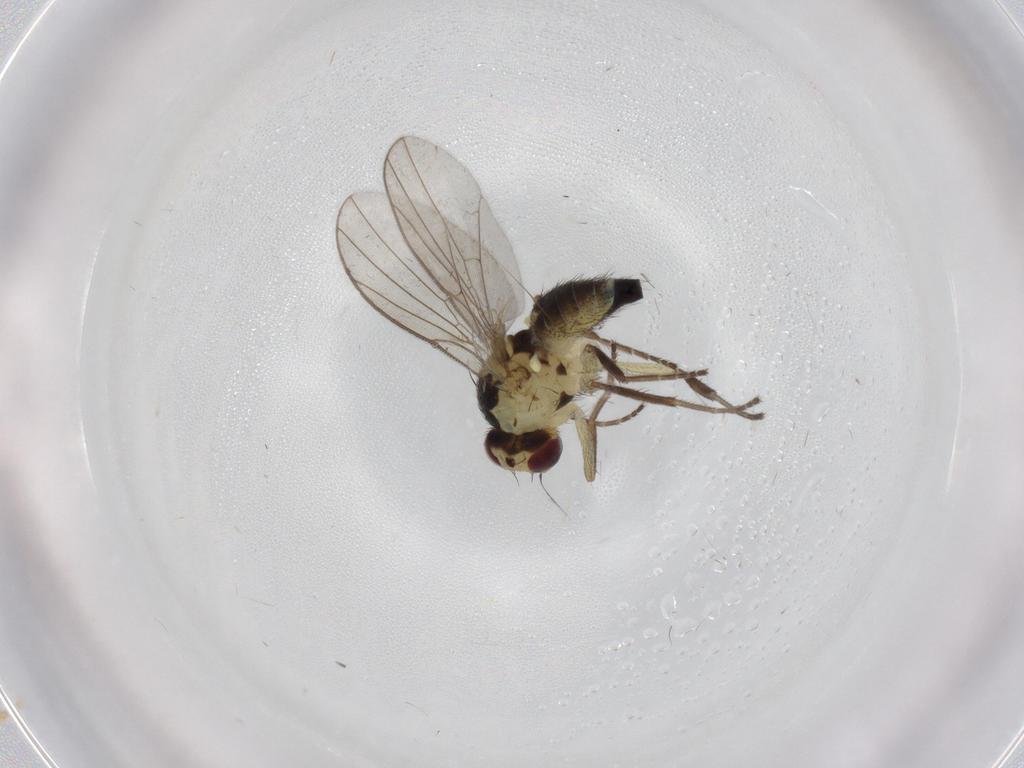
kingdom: Animalia
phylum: Arthropoda
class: Insecta
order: Diptera
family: Agromyzidae
